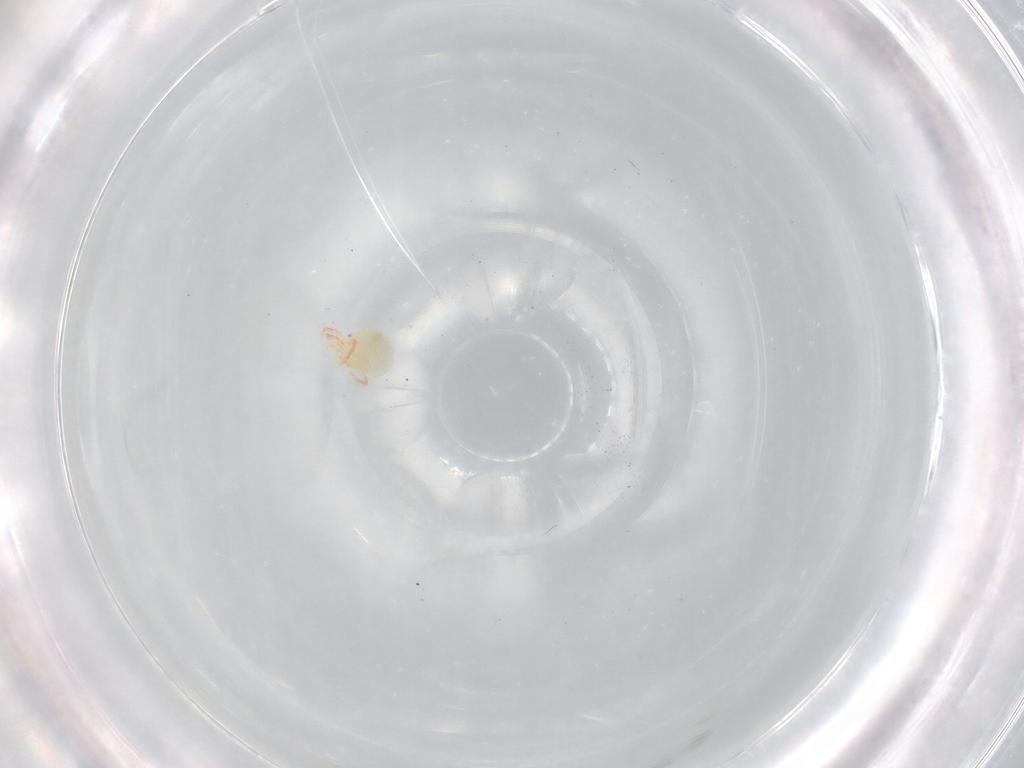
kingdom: Animalia
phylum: Arthropoda
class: Arachnida
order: Trombidiformes
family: Lebertiidae
